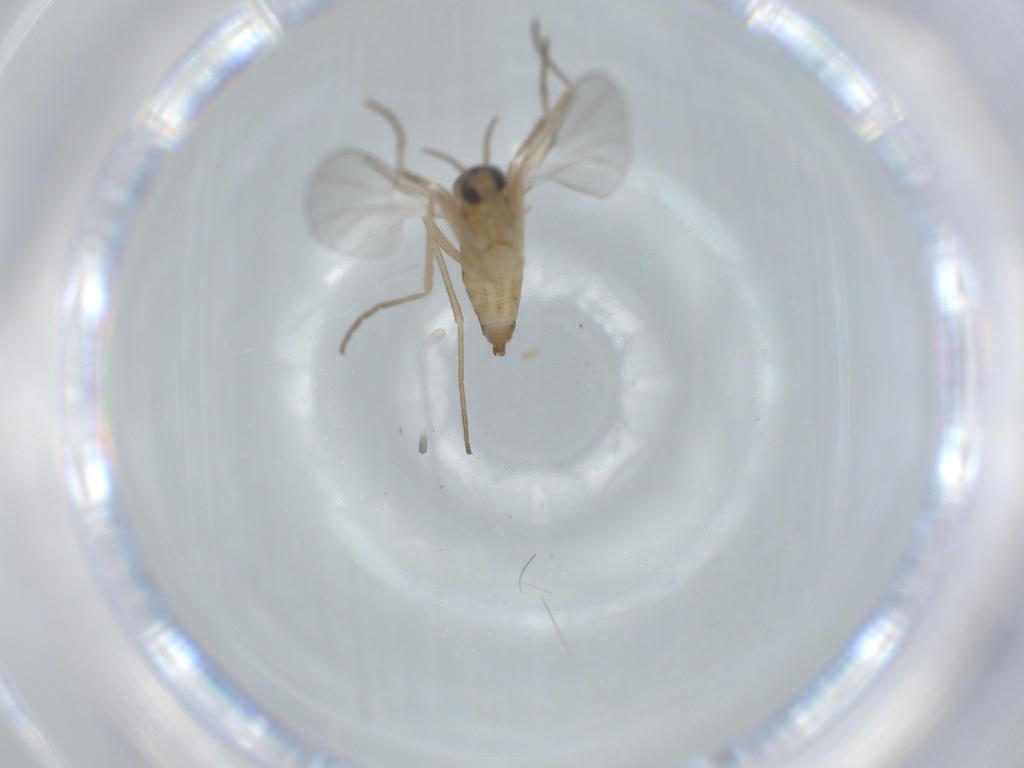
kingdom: Animalia
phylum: Arthropoda
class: Insecta
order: Diptera
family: Cecidomyiidae
